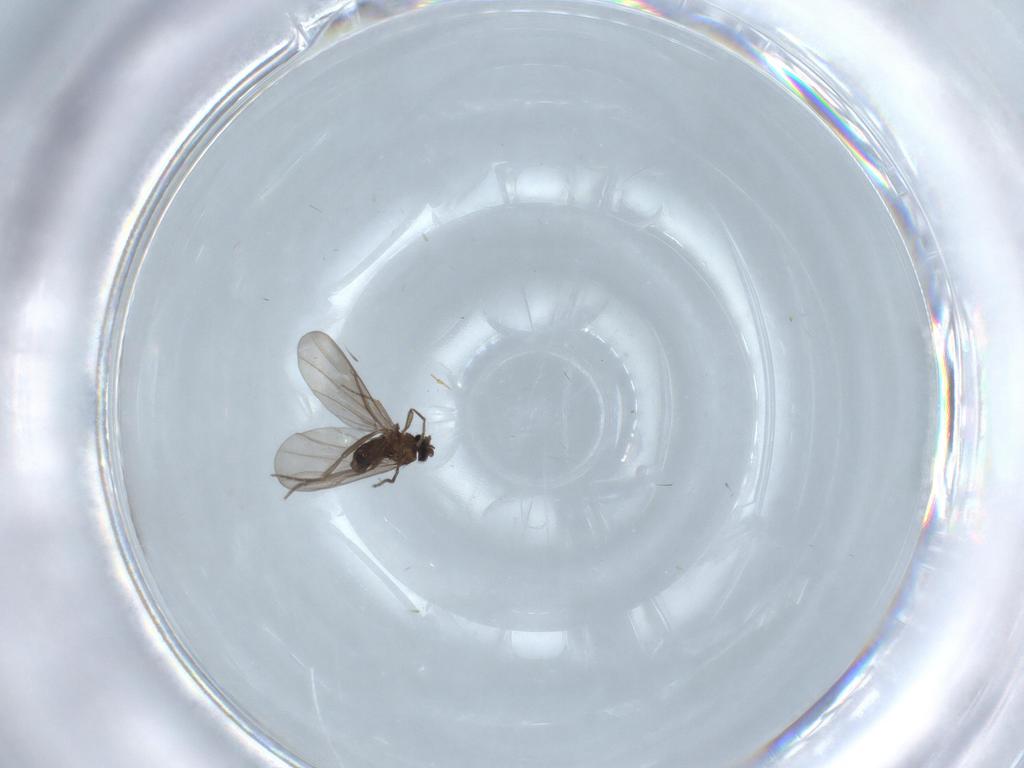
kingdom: Animalia
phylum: Arthropoda
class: Insecta
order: Diptera
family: Phoridae
